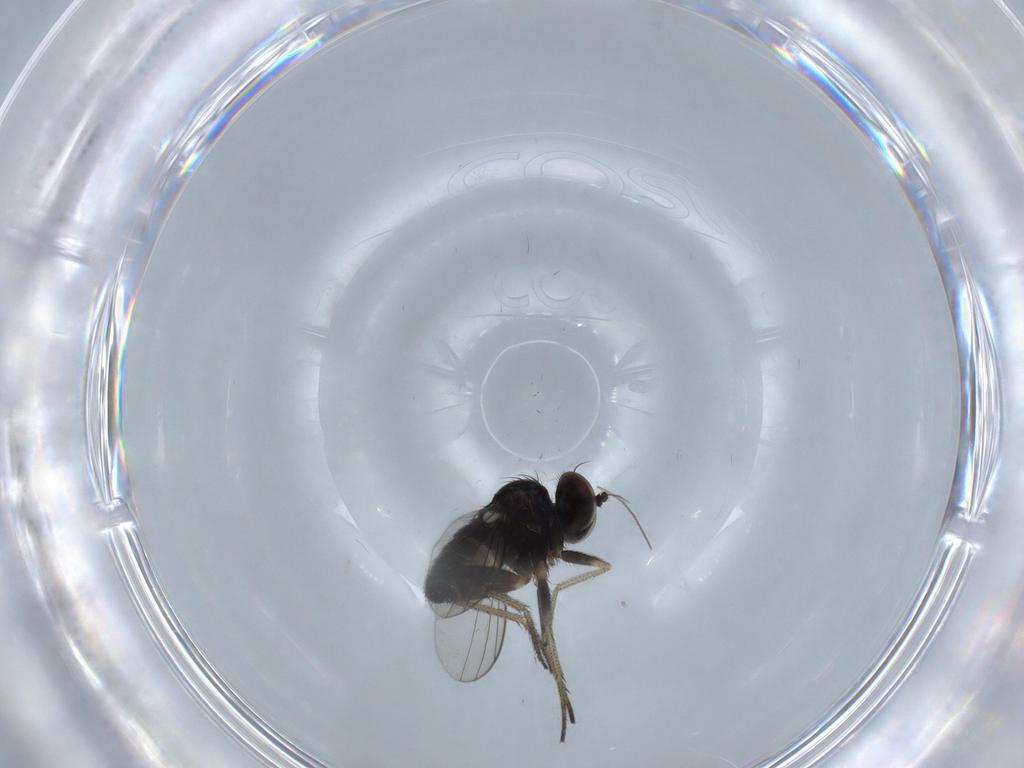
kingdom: Animalia
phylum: Arthropoda
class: Insecta
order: Diptera
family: Dolichopodidae
